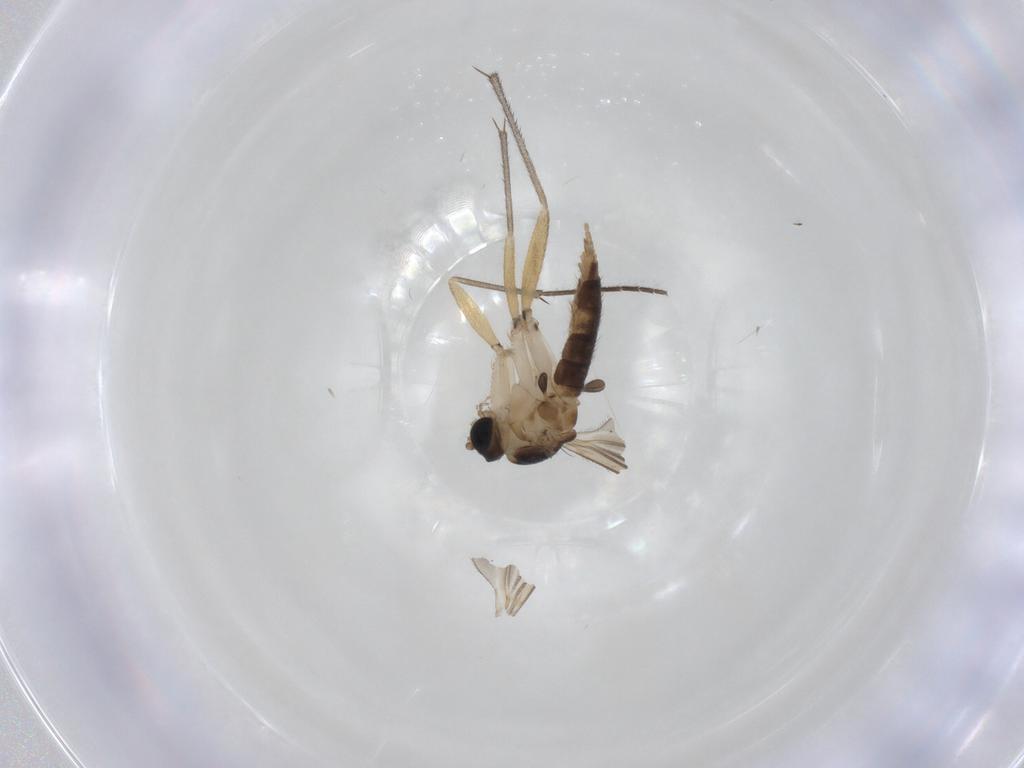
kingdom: Animalia
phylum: Arthropoda
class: Insecta
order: Diptera
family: Sciaridae
